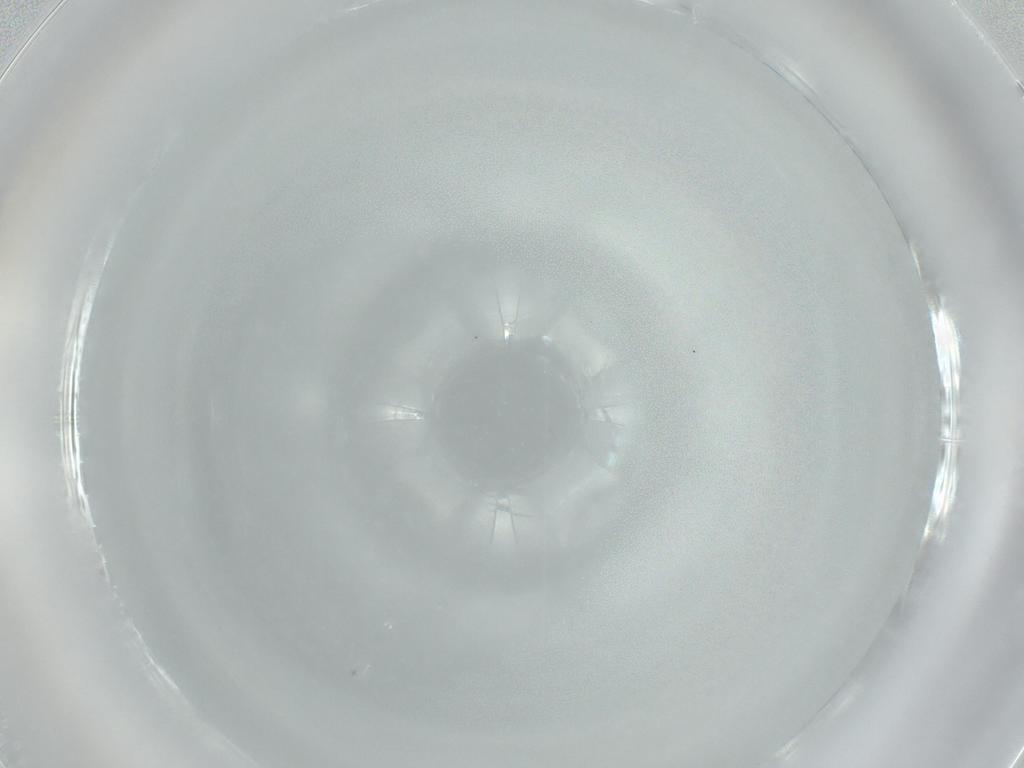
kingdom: Animalia
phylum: Arthropoda
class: Insecta
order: Diptera
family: Ceratopogonidae
